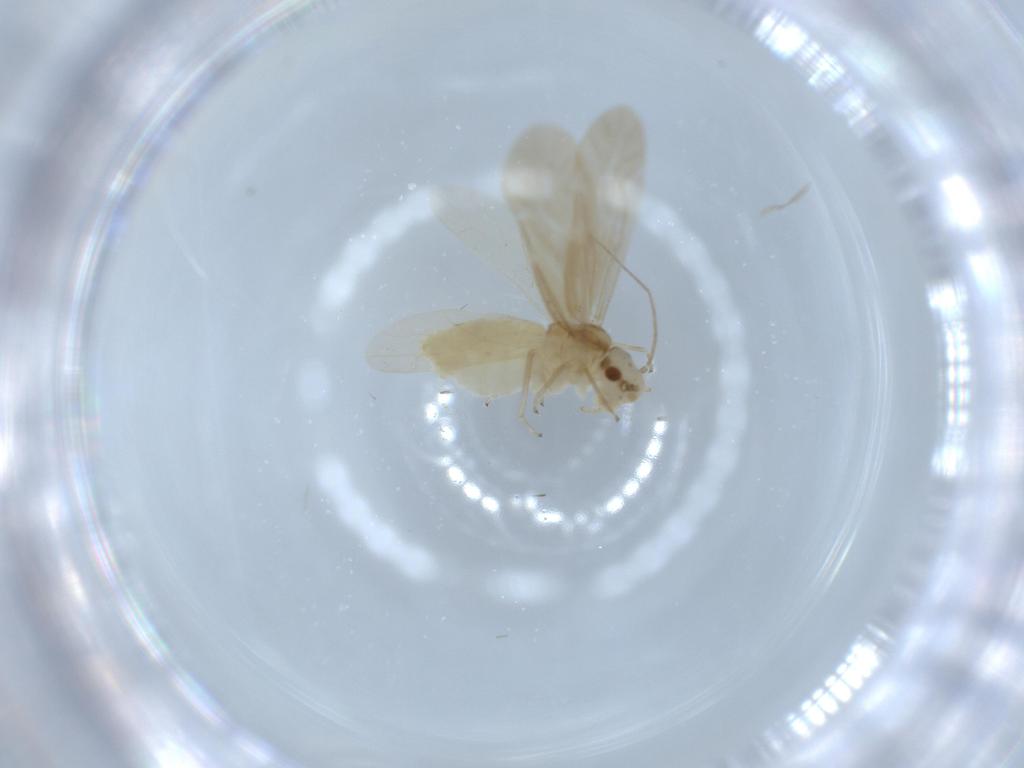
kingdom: Animalia
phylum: Arthropoda
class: Insecta
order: Psocodea
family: Caeciliusidae
